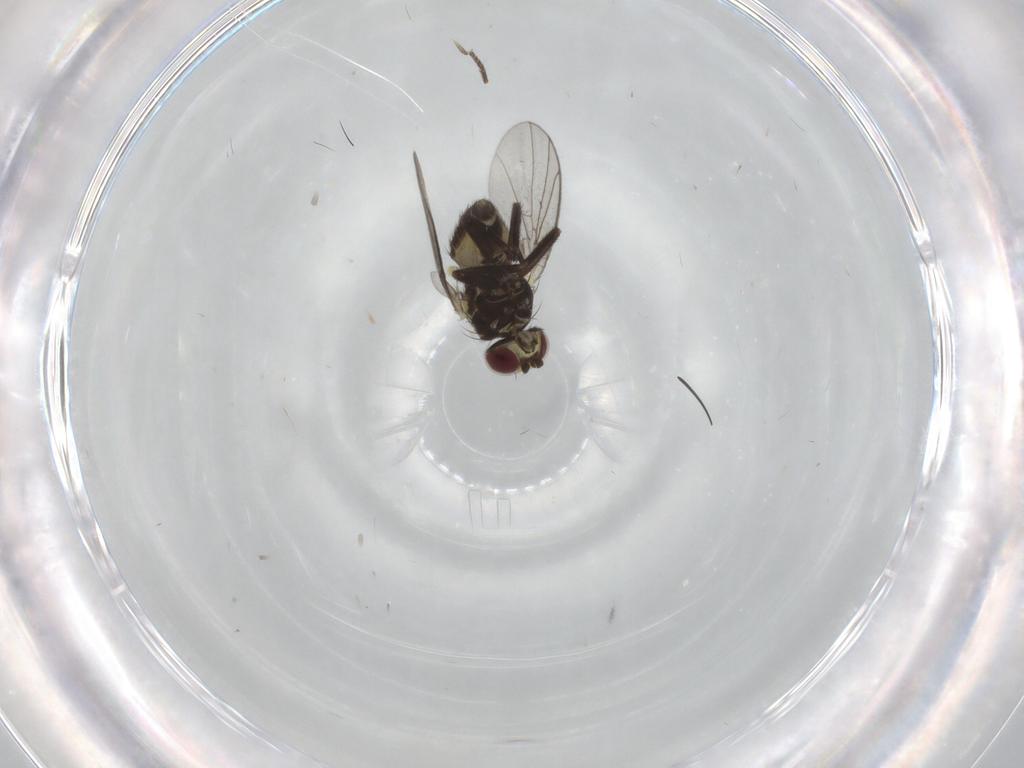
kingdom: Animalia
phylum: Arthropoda
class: Insecta
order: Diptera
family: Agromyzidae
